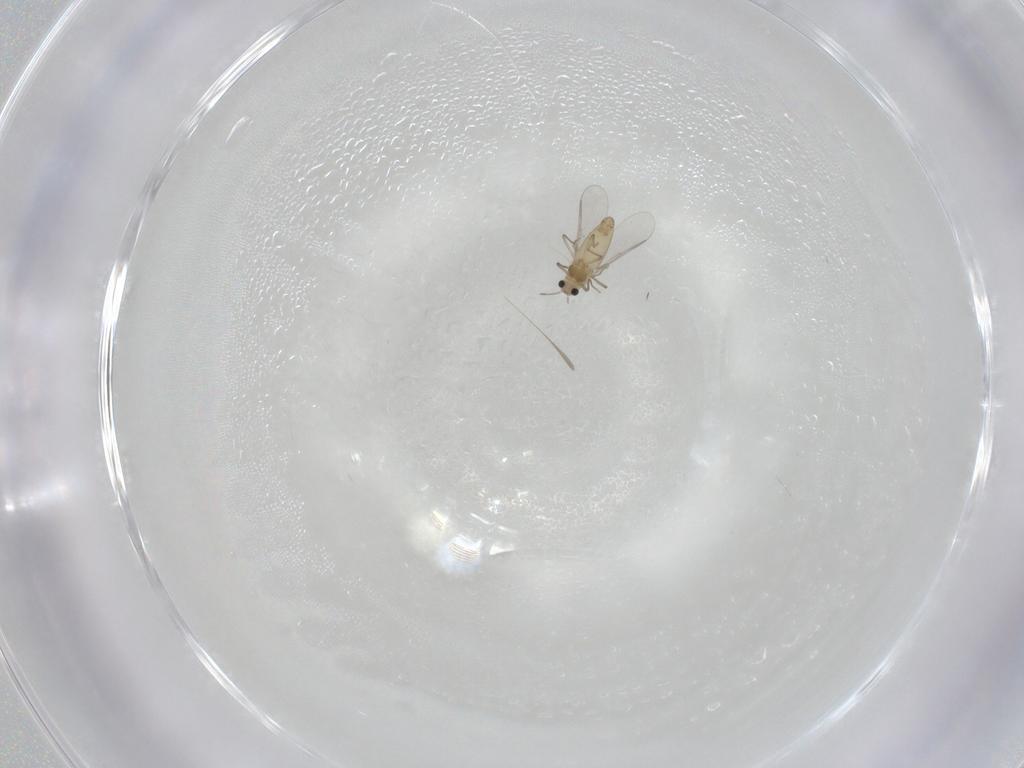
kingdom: Animalia
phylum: Arthropoda
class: Insecta
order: Diptera
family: Chironomidae
